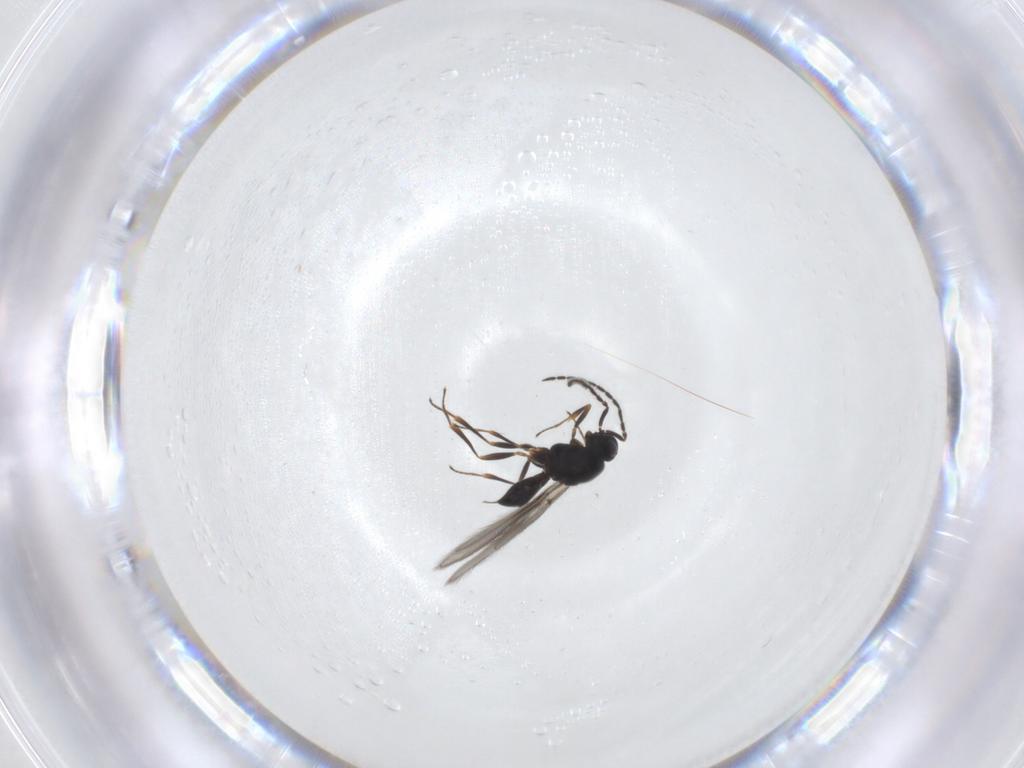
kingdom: Animalia
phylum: Arthropoda
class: Insecta
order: Hymenoptera
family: Scelionidae
